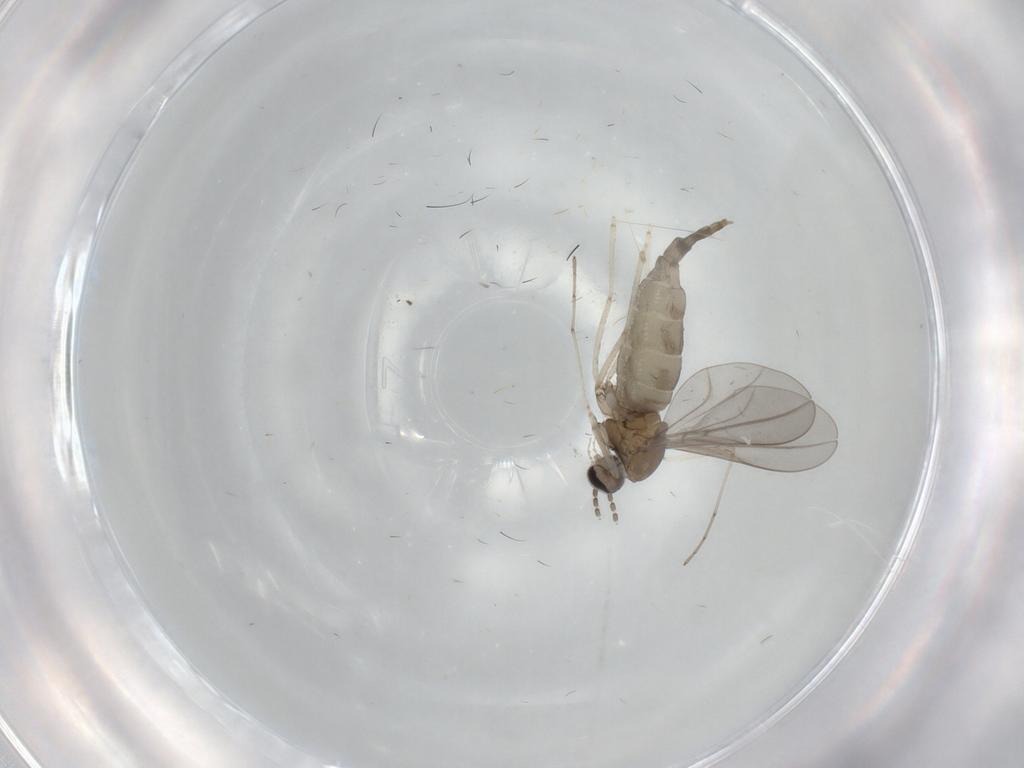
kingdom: Animalia
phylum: Arthropoda
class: Insecta
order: Diptera
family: Cecidomyiidae
